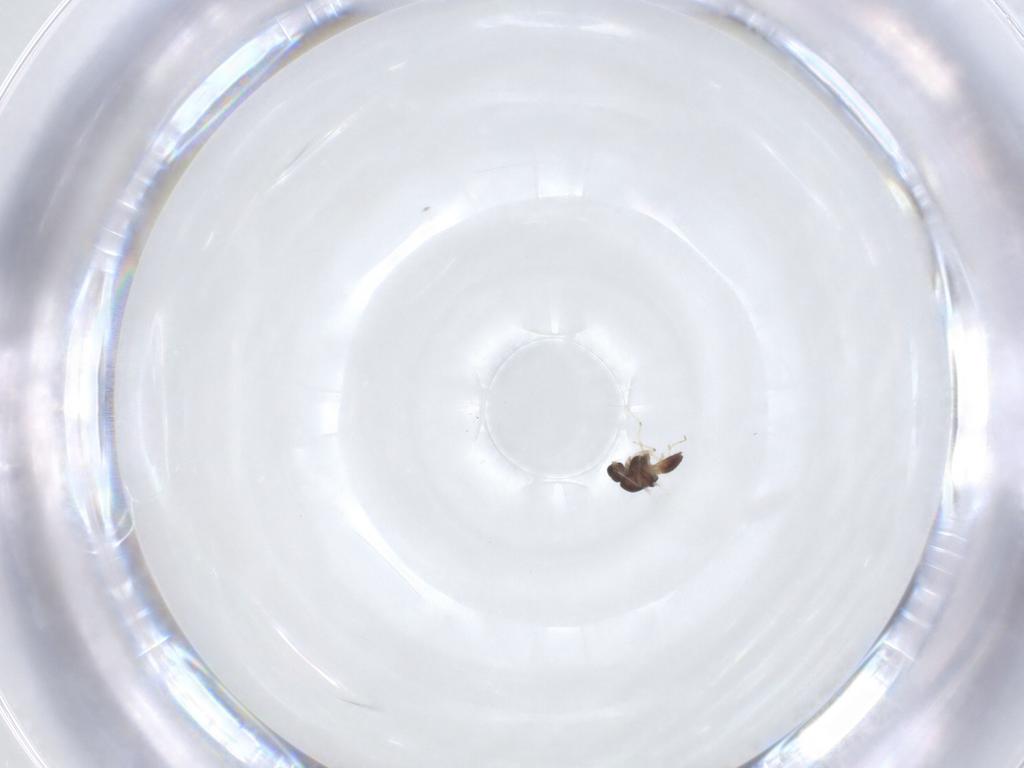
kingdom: Animalia
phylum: Arthropoda
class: Insecta
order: Diptera
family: Chironomidae
